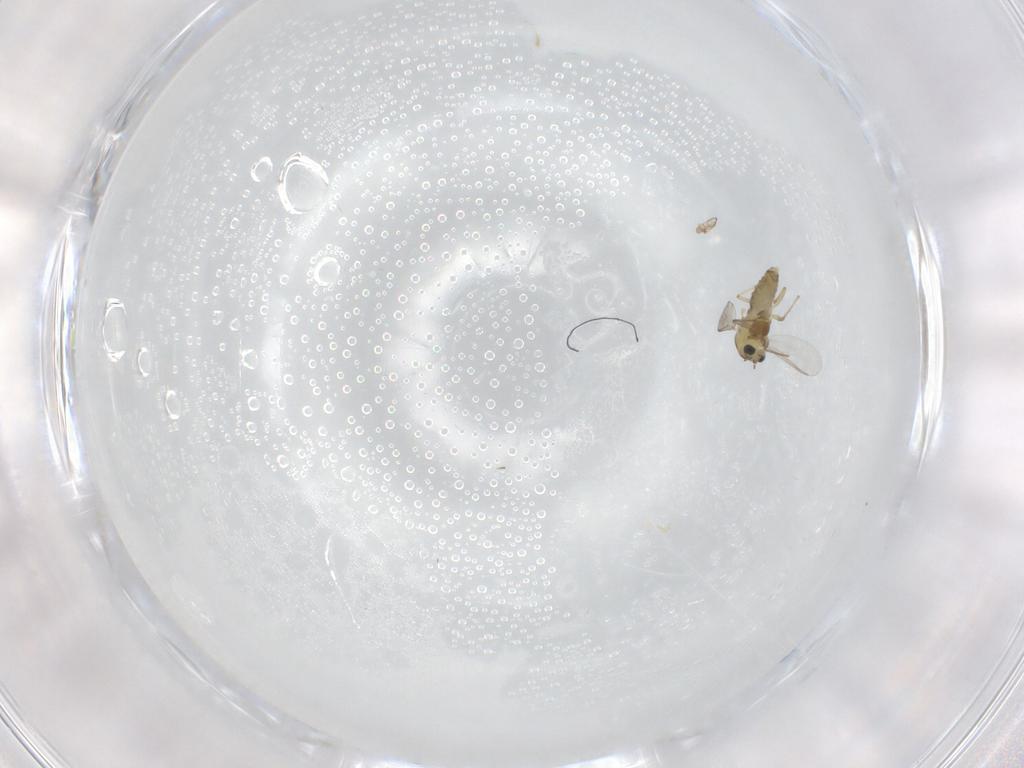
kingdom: Animalia
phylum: Arthropoda
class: Insecta
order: Diptera
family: Chironomidae
